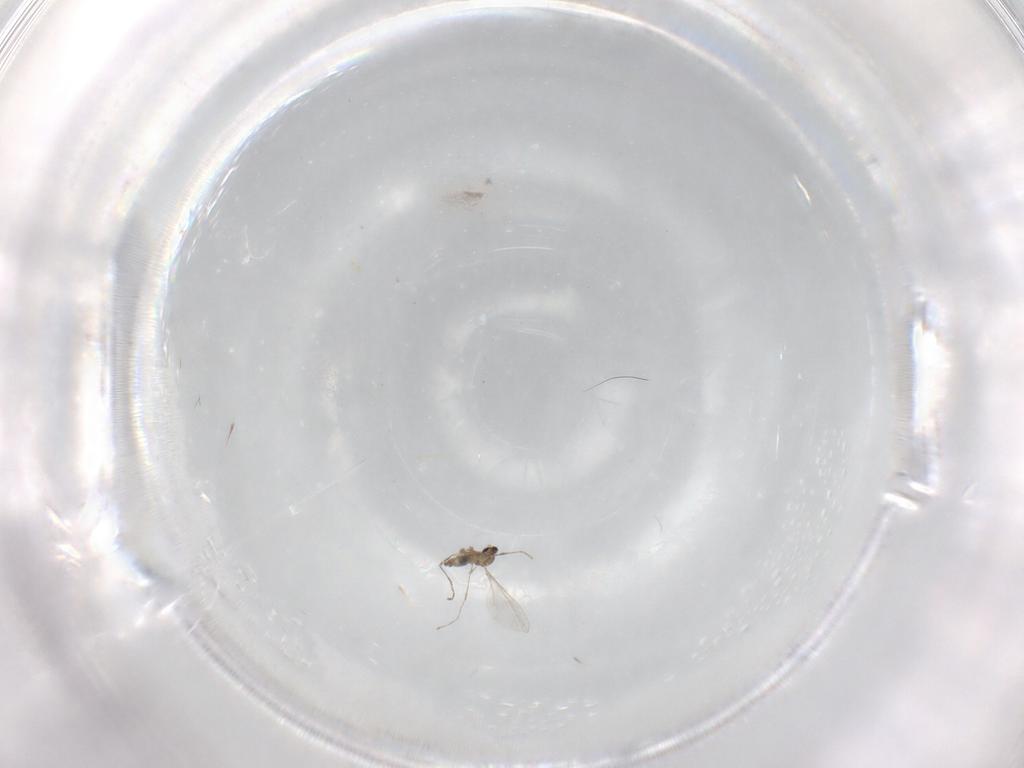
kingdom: Animalia
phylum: Arthropoda
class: Insecta
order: Diptera
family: Cecidomyiidae
